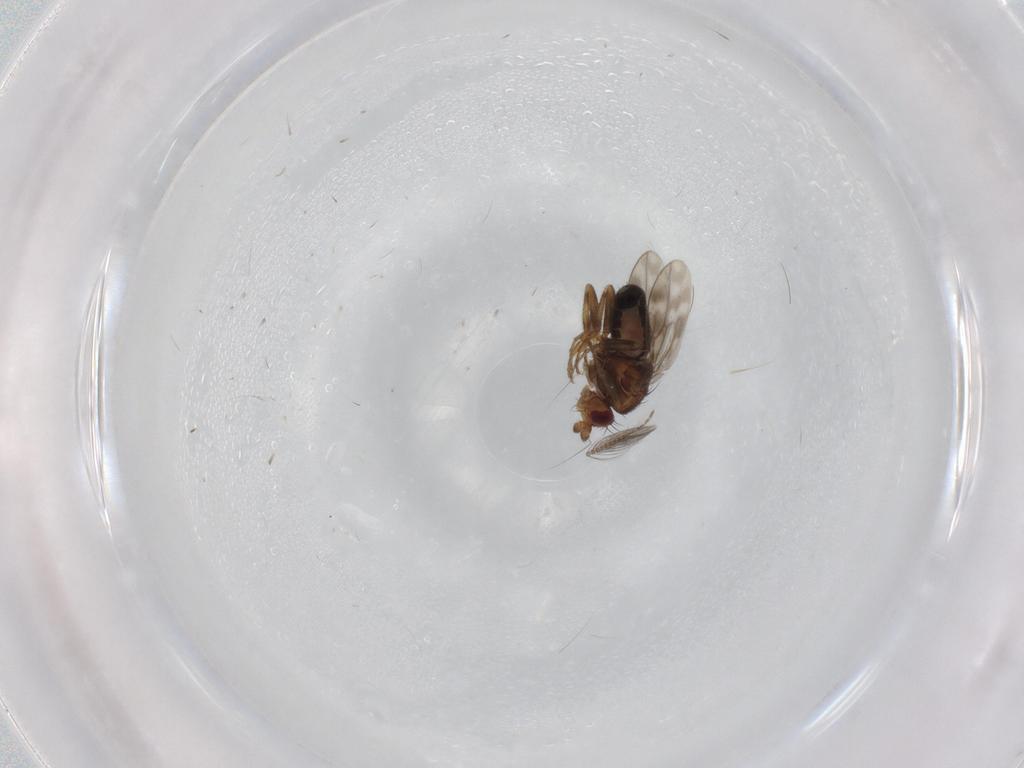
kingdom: Animalia
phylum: Arthropoda
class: Insecta
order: Diptera
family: Sphaeroceridae
